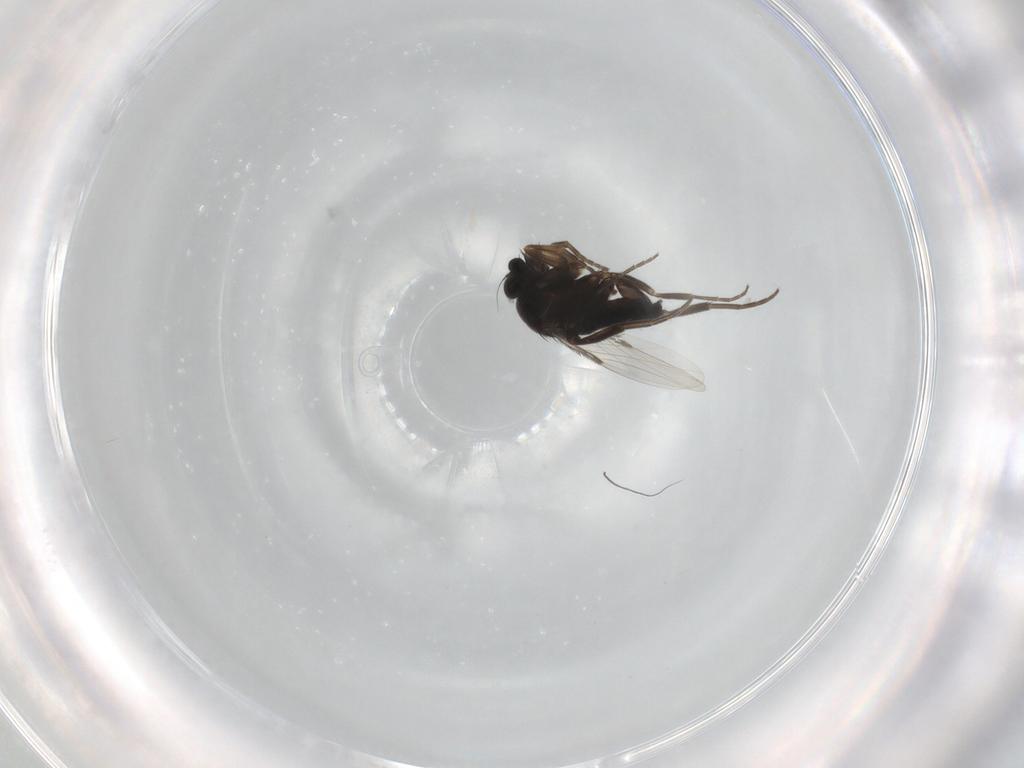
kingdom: Animalia
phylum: Arthropoda
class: Insecta
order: Diptera
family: Phoridae
